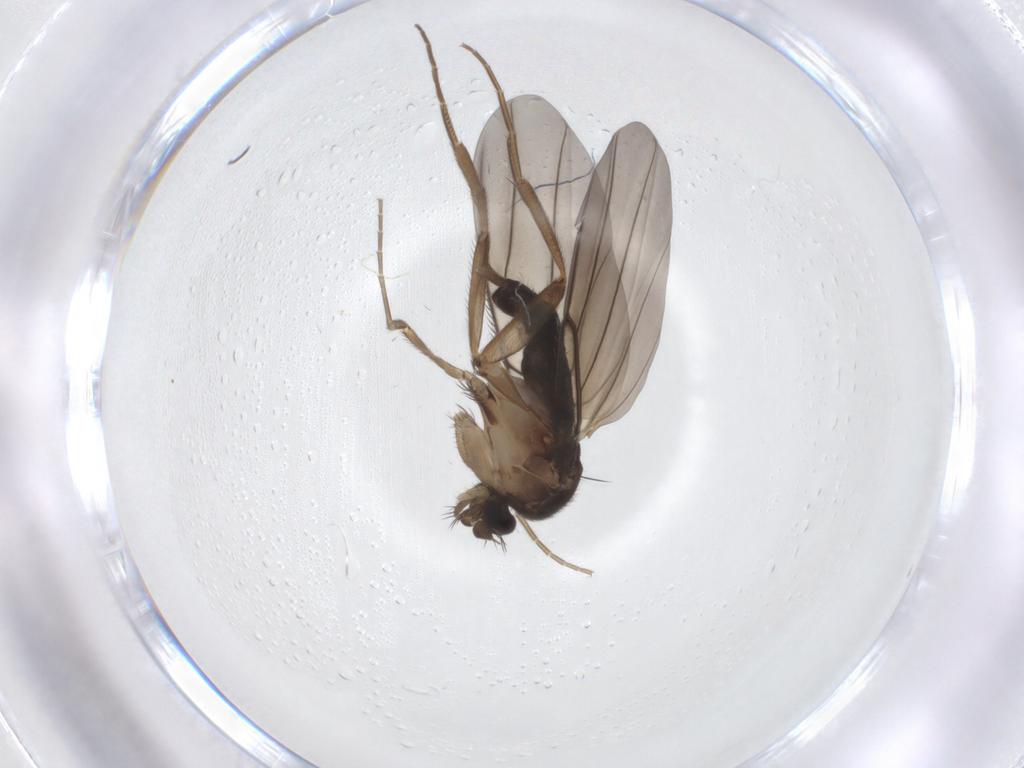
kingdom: Animalia
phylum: Arthropoda
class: Insecta
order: Diptera
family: Phoridae
